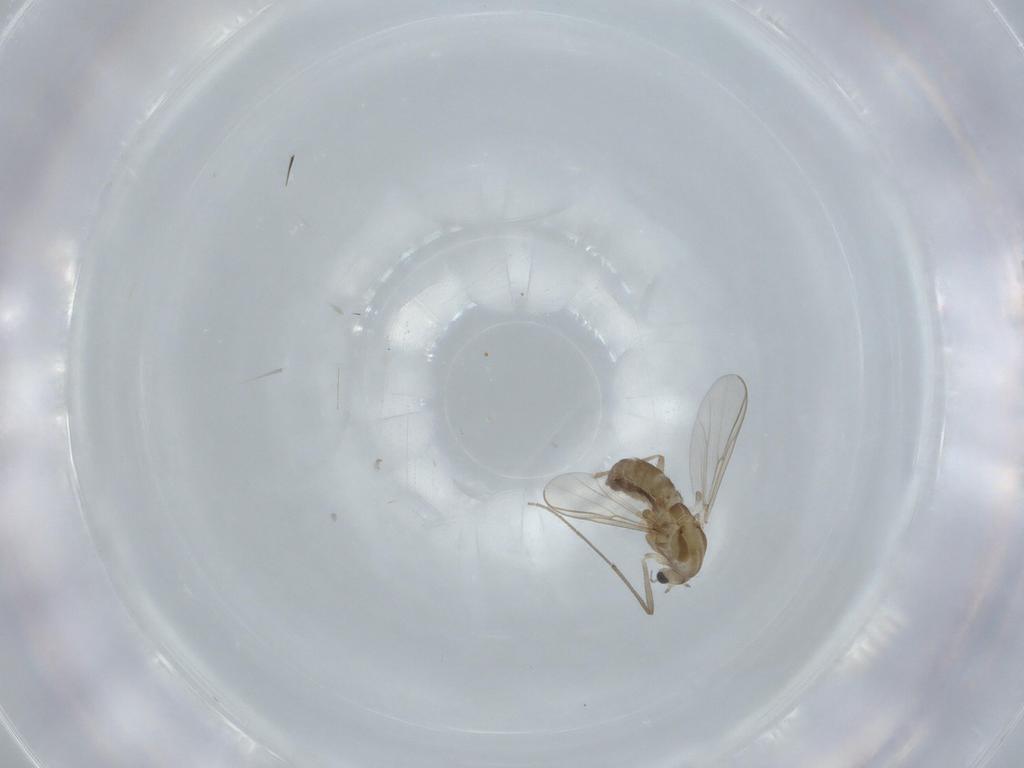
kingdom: Animalia
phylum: Arthropoda
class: Insecta
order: Diptera
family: Chironomidae
